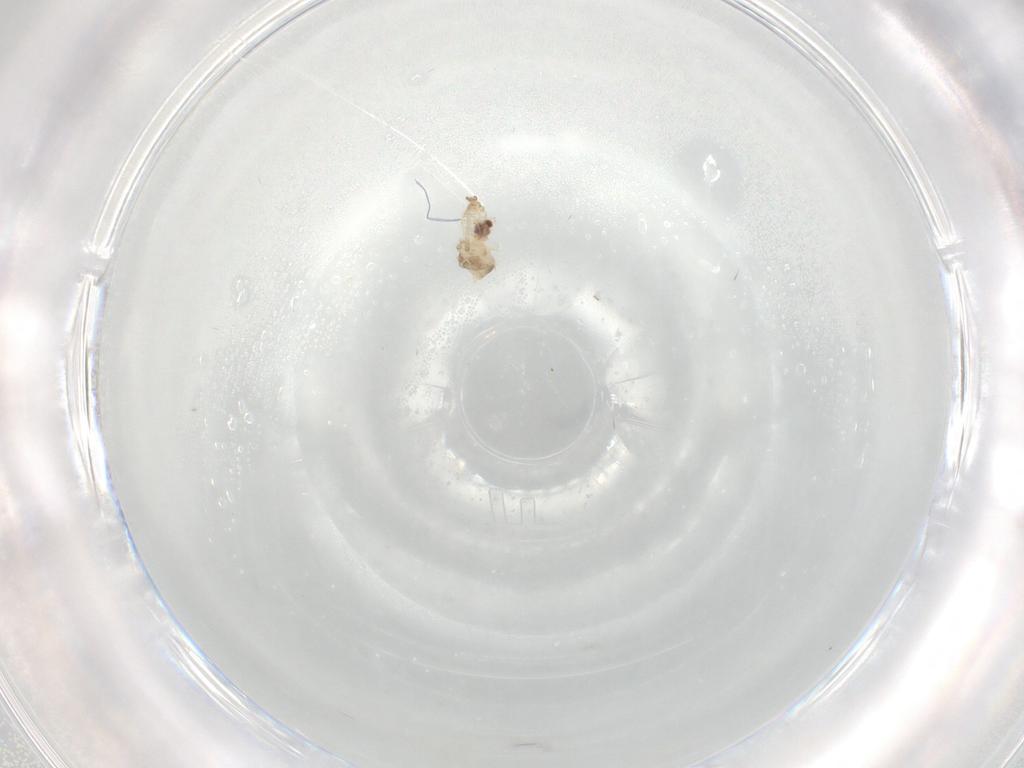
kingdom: Animalia
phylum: Arthropoda
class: Insecta
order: Diptera
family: Cecidomyiidae
